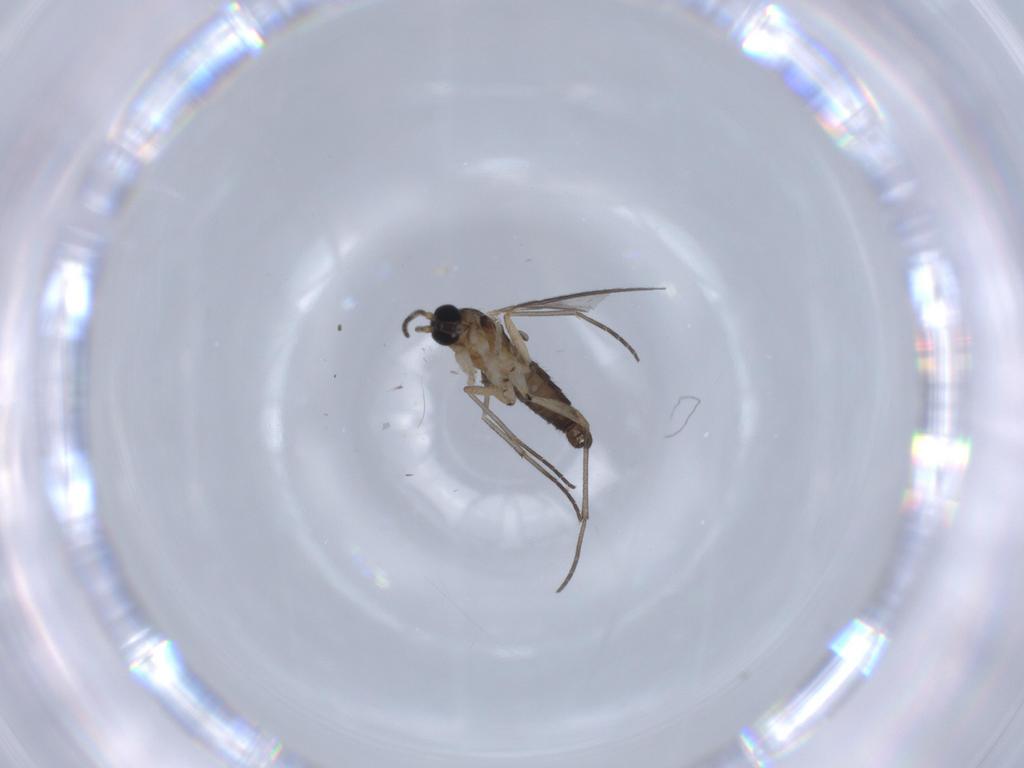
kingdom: Animalia
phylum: Arthropoda
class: Insecta
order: Diptera
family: Sciaridae
